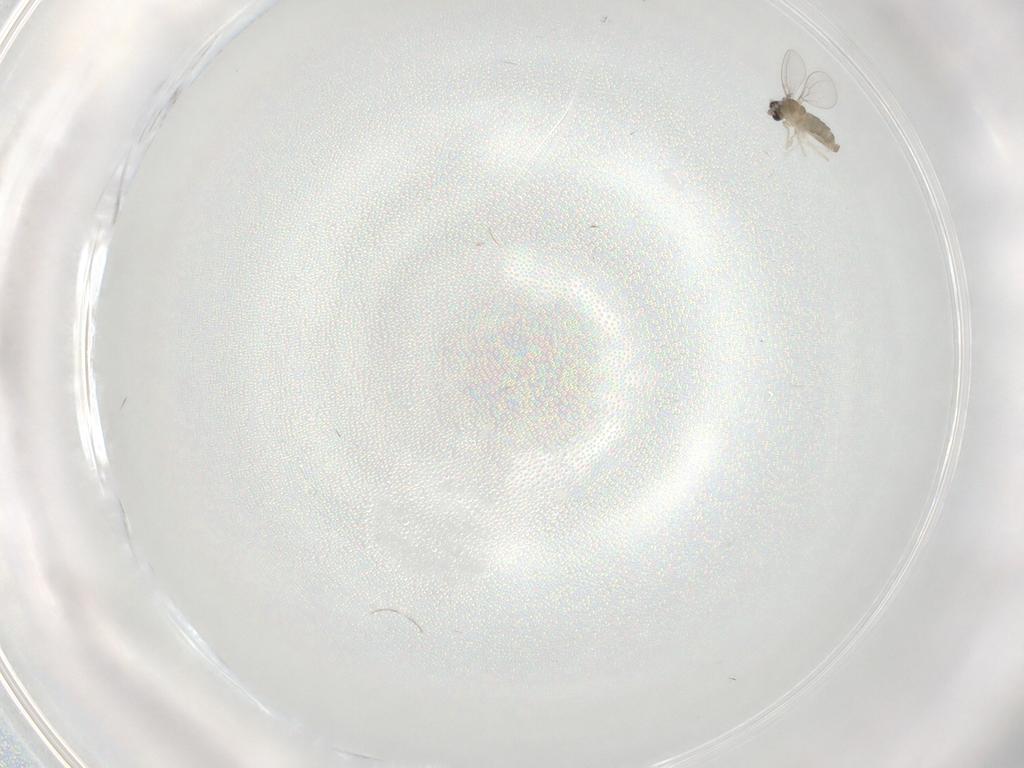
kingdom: Animalia
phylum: Arthropoda
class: Insecta
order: Diptera
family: Cecidomyiidae
